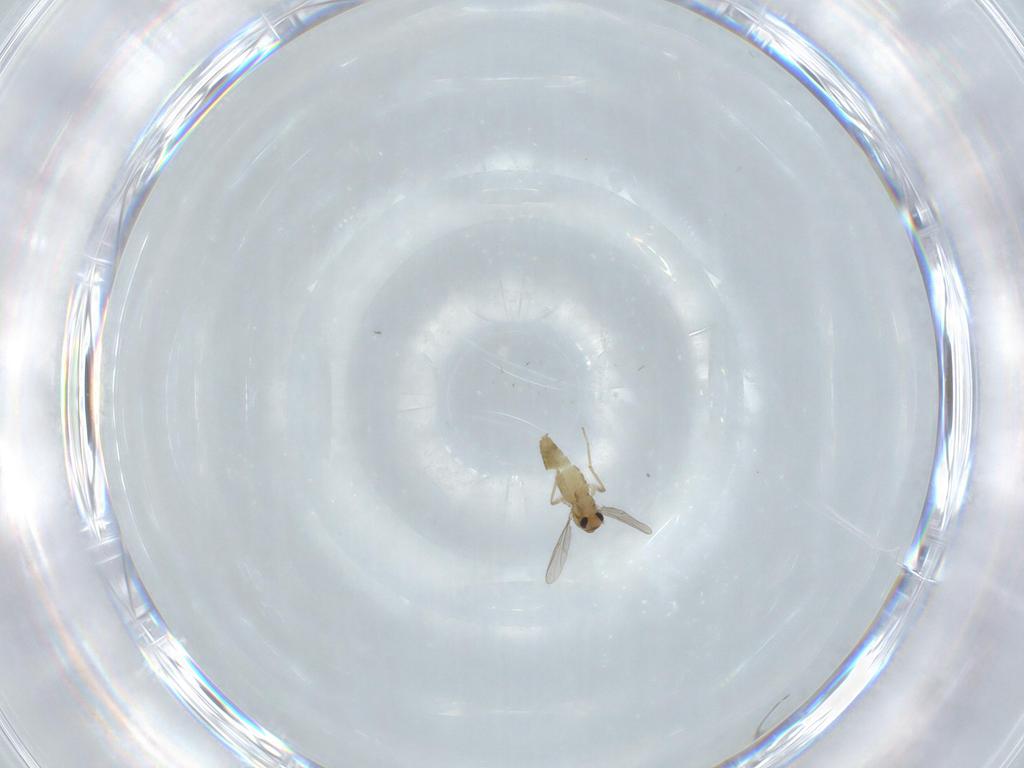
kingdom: Animalia
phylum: Arthropoda
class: Insecta
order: Diptera
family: Chironomidae
